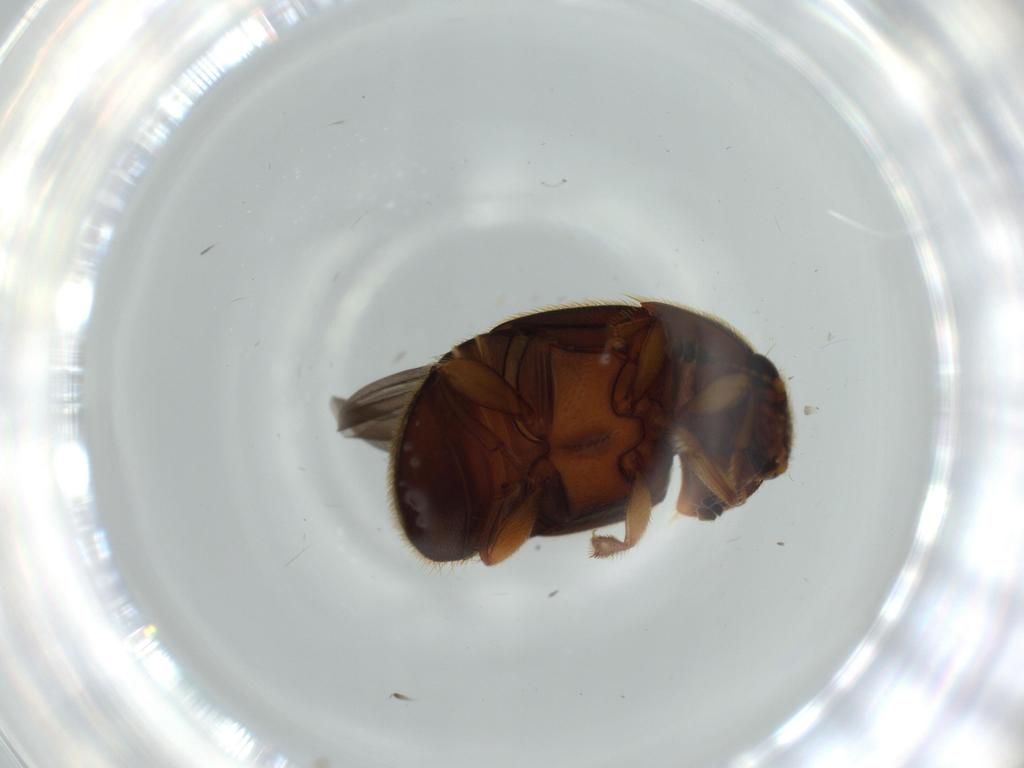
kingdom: Animalia
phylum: Arthropoda
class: Insecta
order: Coleoptera
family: Nitidulidae
